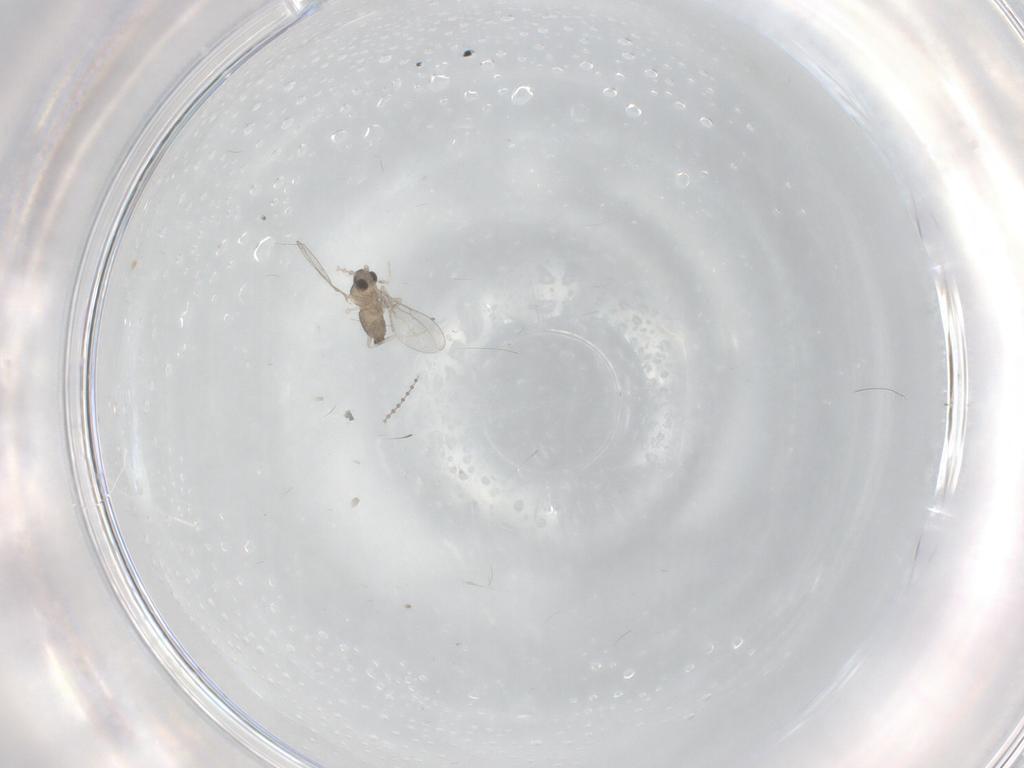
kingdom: Animalia
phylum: Arthropoda
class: Insecta
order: Diptera
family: Cecidomyiidae
